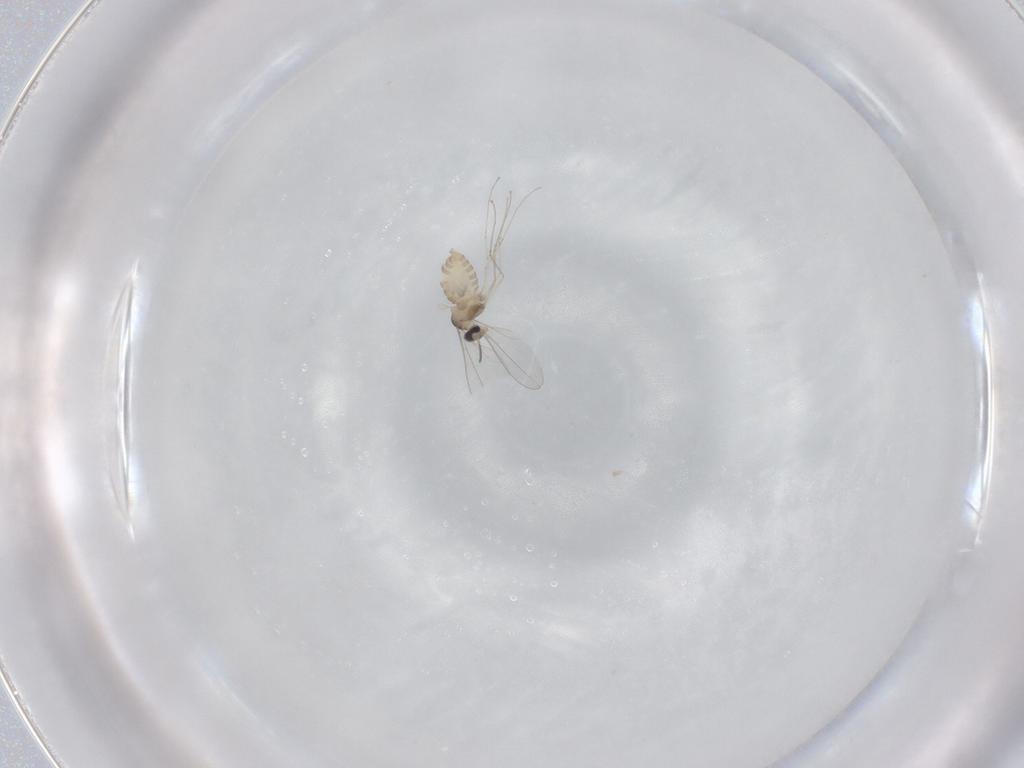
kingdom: Animalia
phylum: Arthropoda
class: Insecta
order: Diptera
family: Cecidomyiidae
